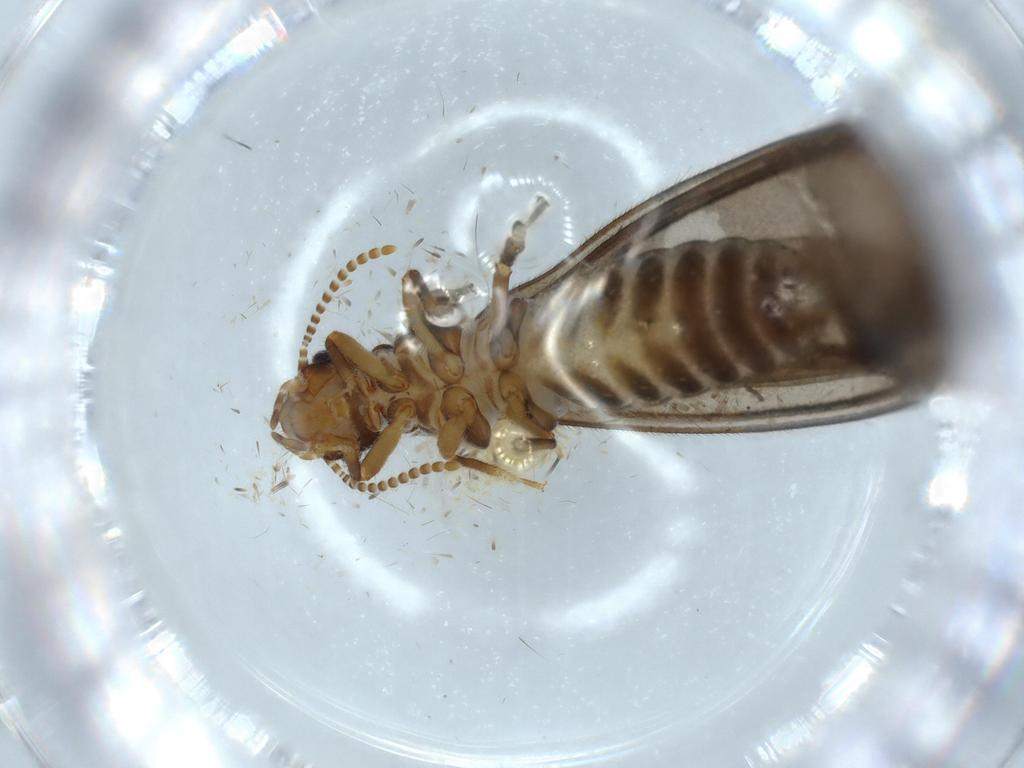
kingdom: Animalia
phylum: Arthropoda
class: Insecta
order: Blattodea
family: Termitidae
